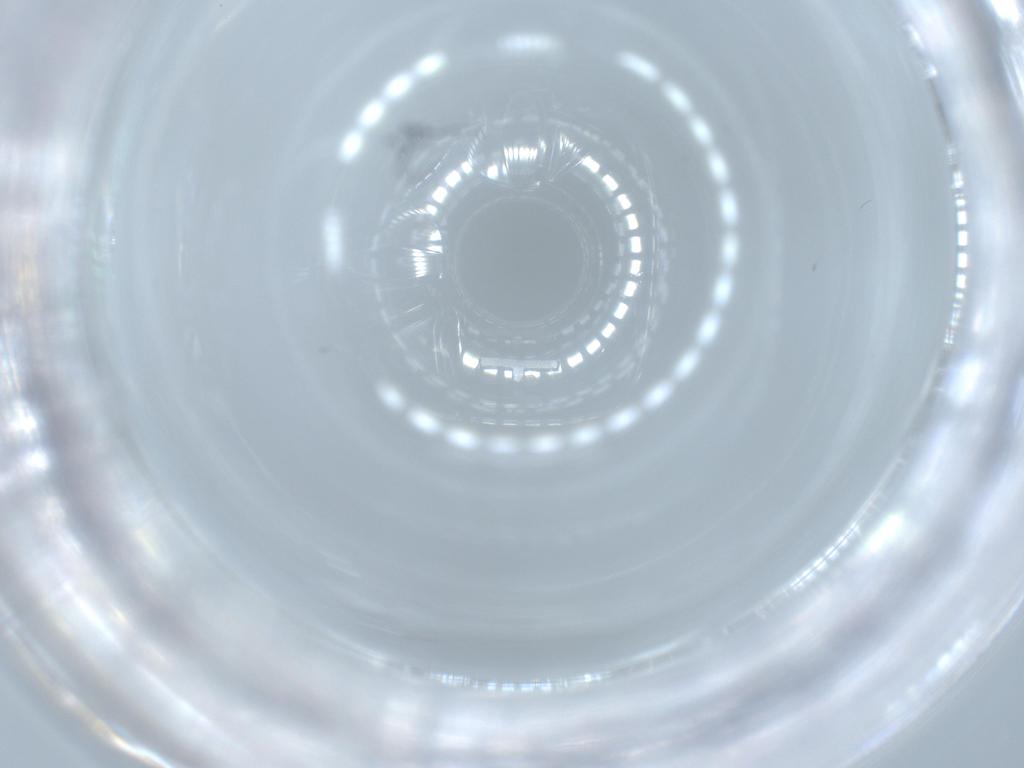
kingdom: Animalia
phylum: Arthropoda
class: Insecta
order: Diptera
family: Cecidomyiidae
